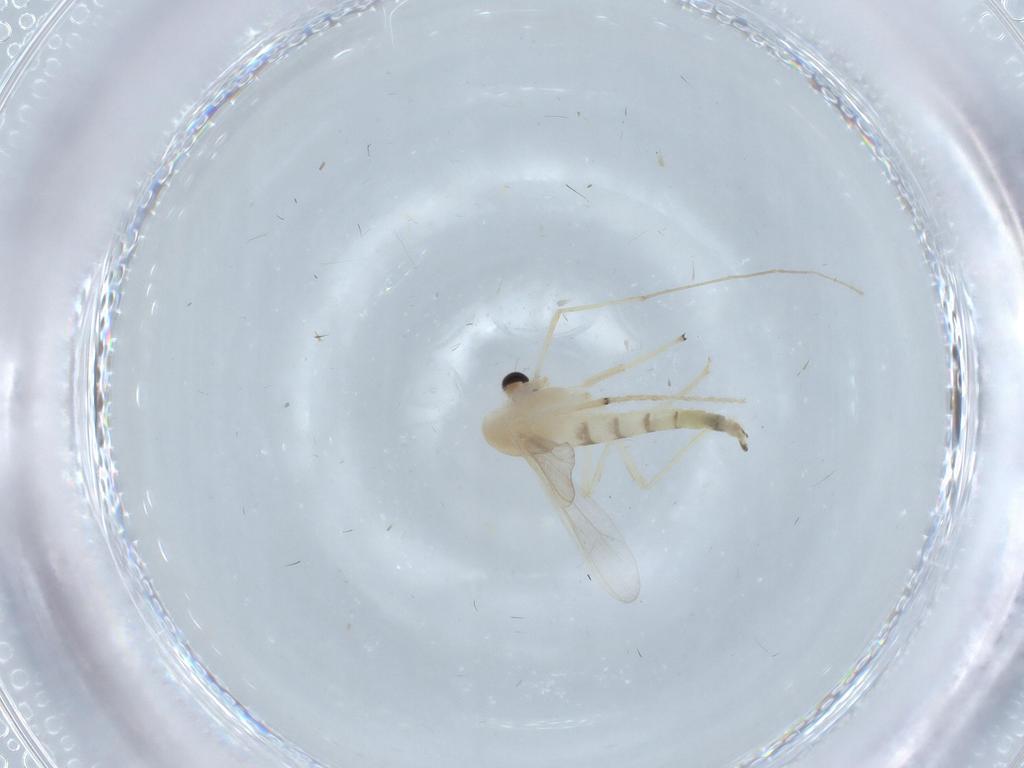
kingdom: Animalia
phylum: Arthropoda
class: Insecta
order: Diptera
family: Chironomidae
